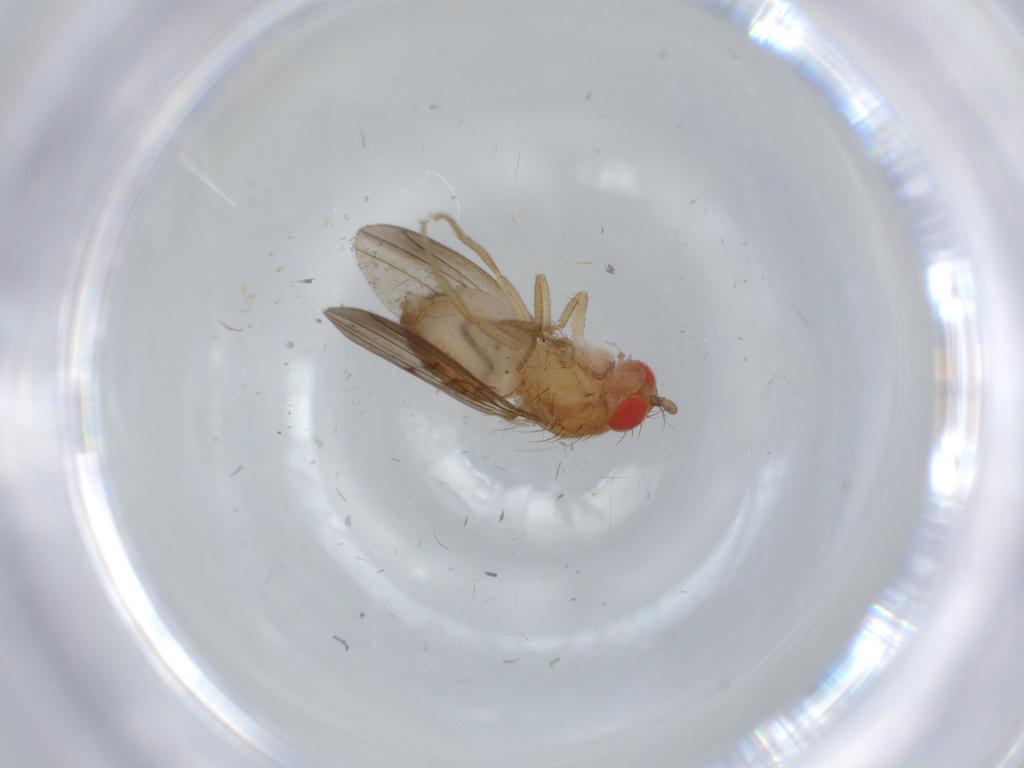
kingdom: Animalia
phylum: Arthropoda
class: Insecta
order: Diptera
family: Drosophilidae
